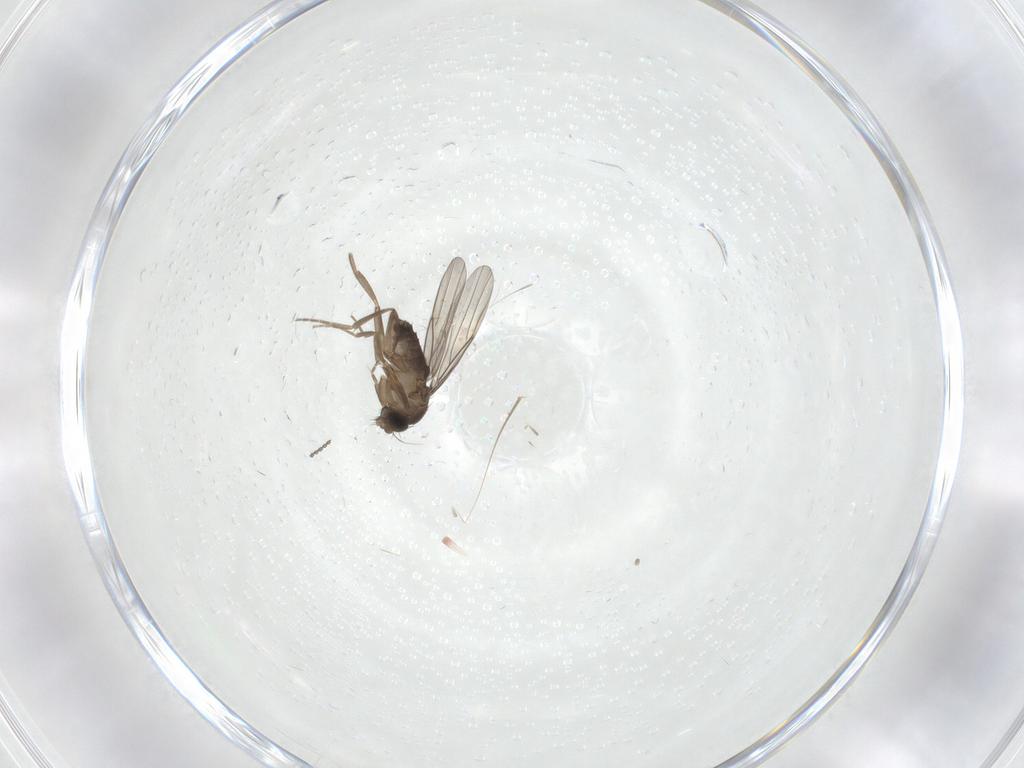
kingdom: Animalia
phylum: Arthropoda
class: Insecta
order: Diptera
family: Phoridae
